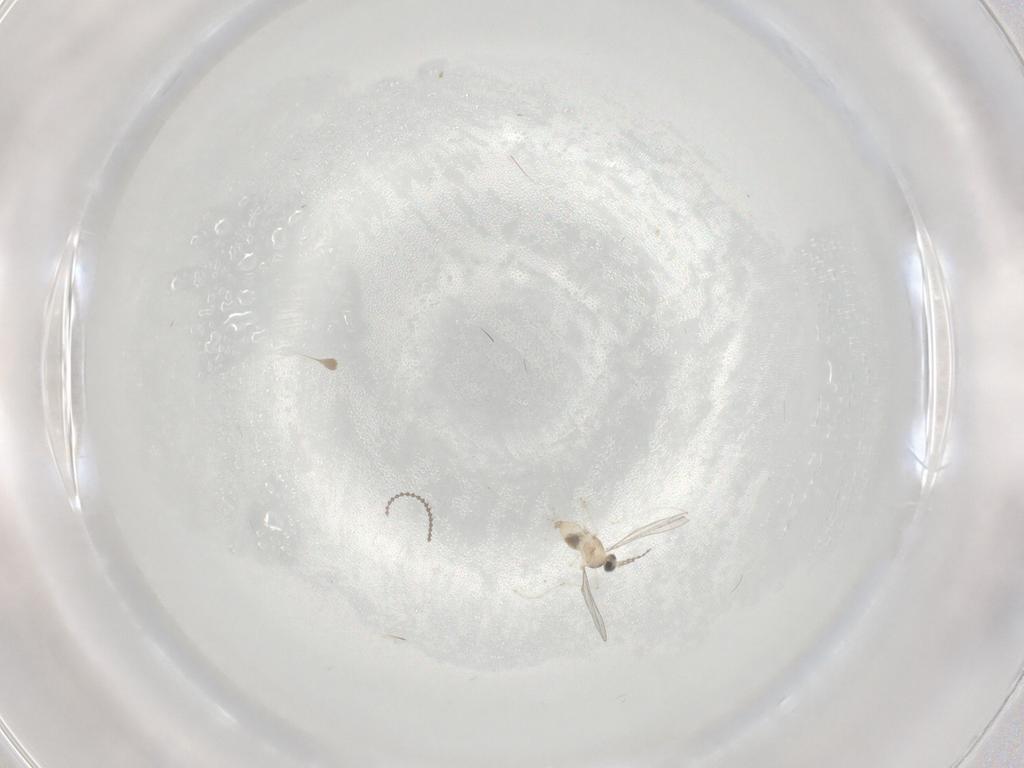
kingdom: Animalia
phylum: Arthropoda
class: Insecta
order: Diptera
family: Cecidomyiidae
